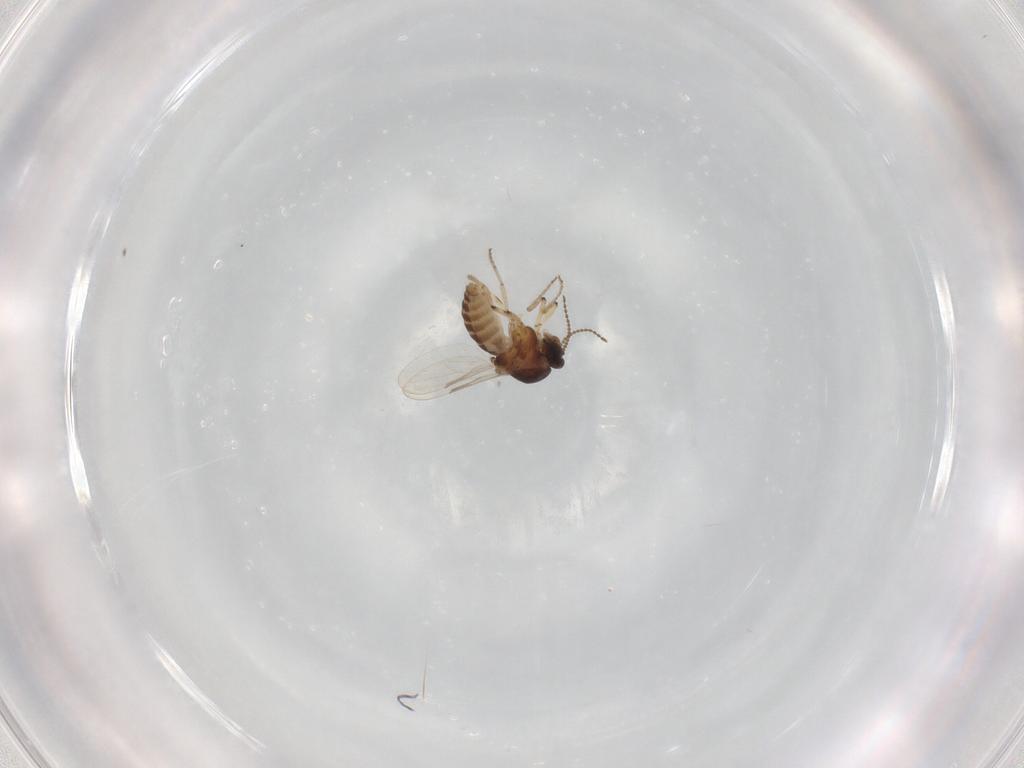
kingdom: Animalia
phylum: Arthropoda
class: Insecta
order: Diptera
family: Ceratopogonidae
